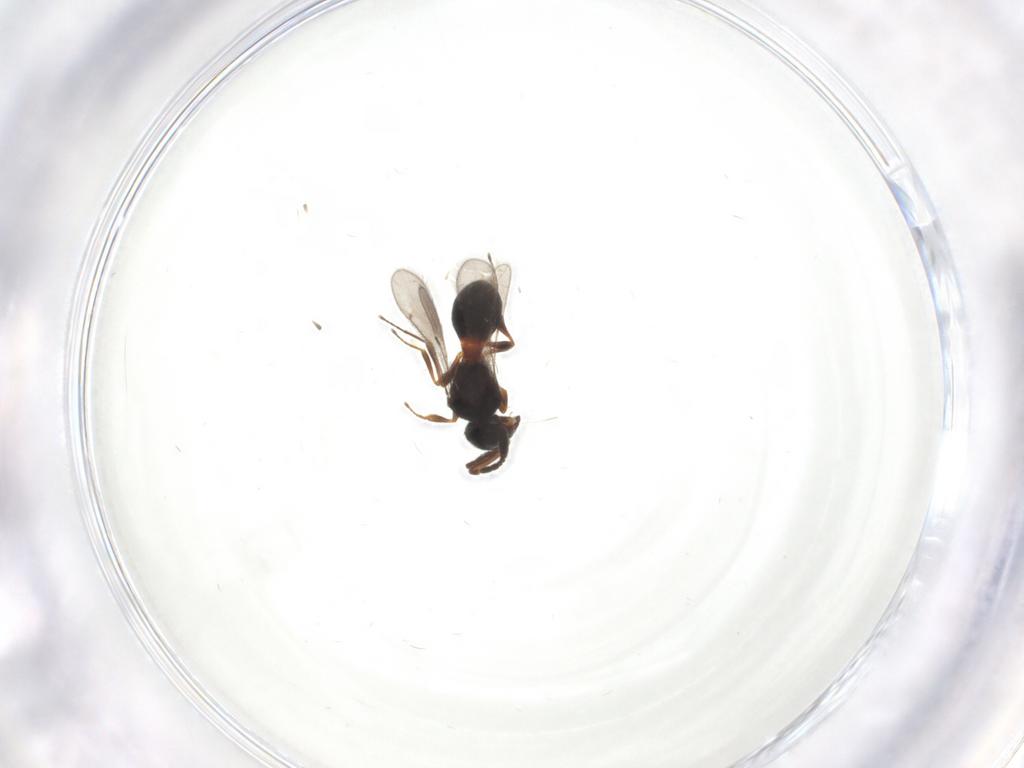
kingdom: Animalia
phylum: Arthropoda
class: Insecta
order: Hymenoptera
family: Scelionidae
